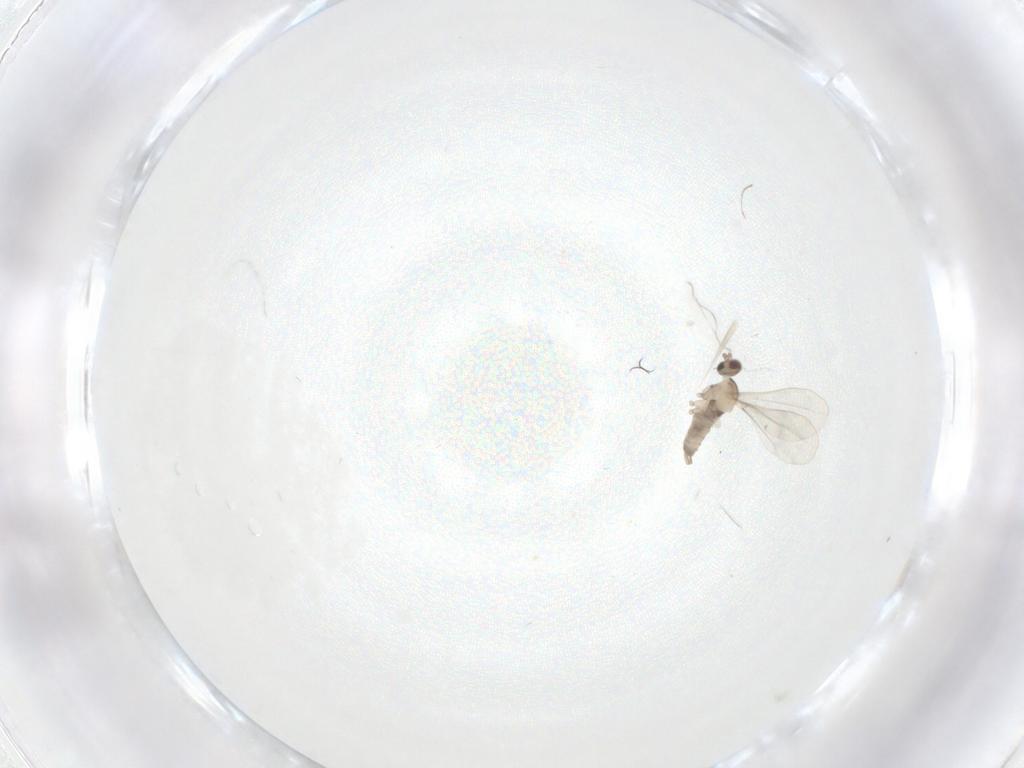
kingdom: Animalia
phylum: Arthropoda
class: Insecta
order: Diptera
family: Cecidomyiidae
